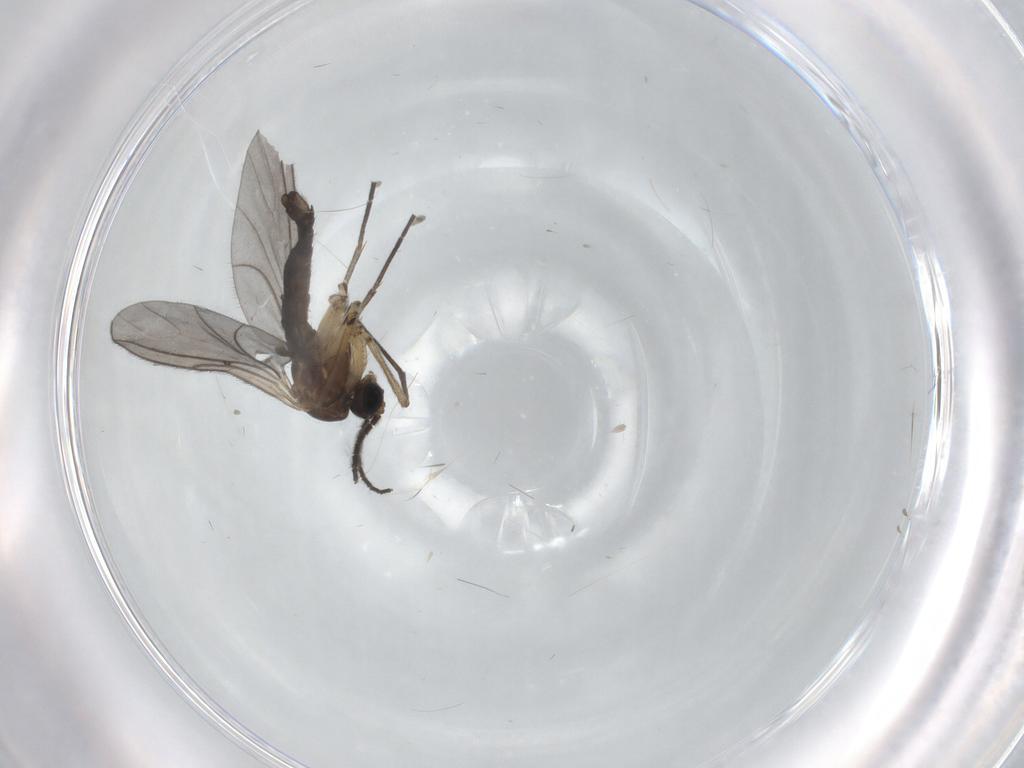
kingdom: Animalia
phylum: Arthropoda
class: Insecta
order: Diptera
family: Sciaridae
